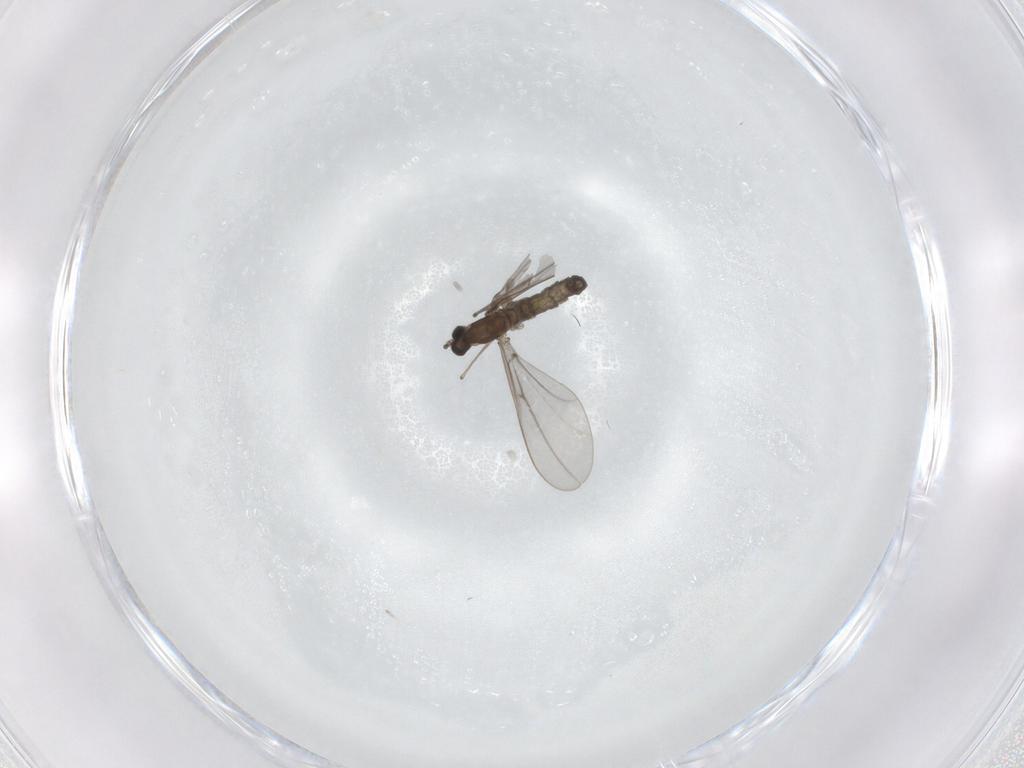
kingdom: Animalia
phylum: Arthropoda
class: Insecta
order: Diptera
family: Cecidomyiidae
